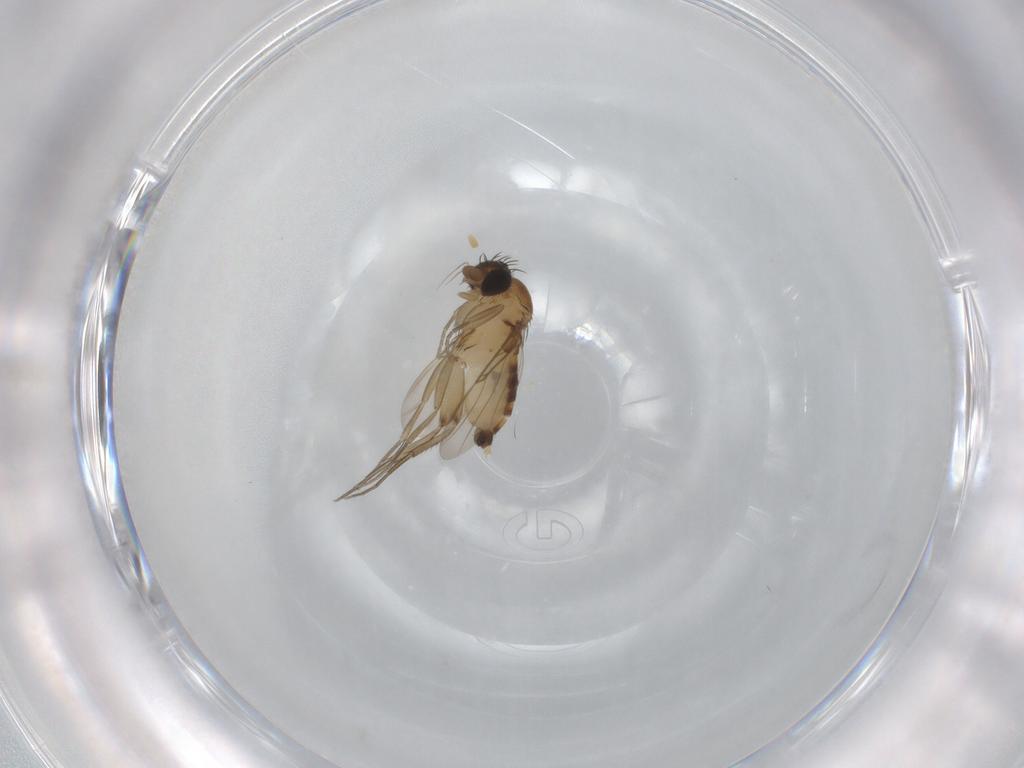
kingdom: Animalia
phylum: Arthropoda
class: Insecta
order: Diptera
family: Phoridae
